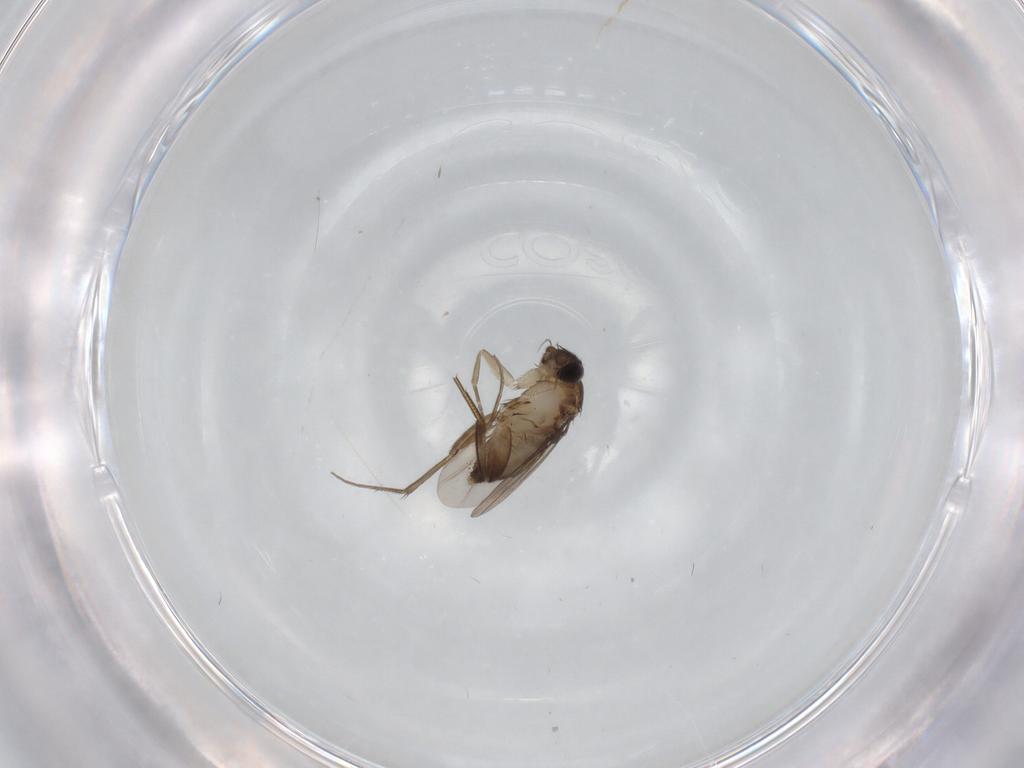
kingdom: Animalia
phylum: Arthropoda
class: Insecta
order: Diptera
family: Phoridae
